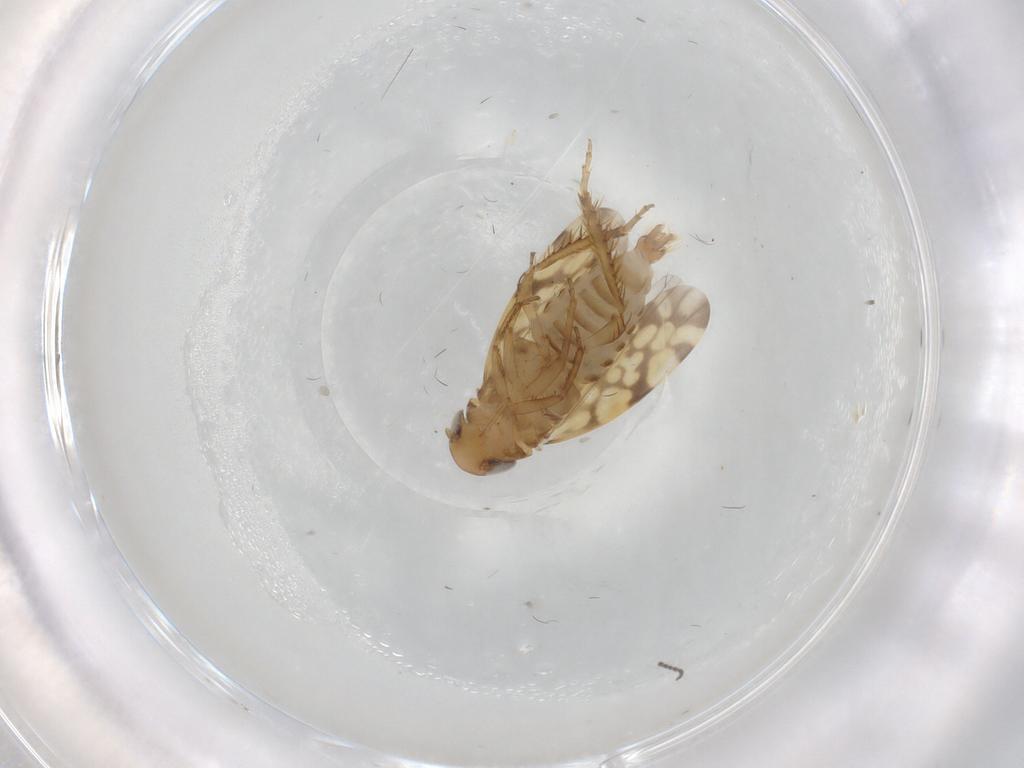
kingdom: Animalia
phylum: Arthropoda
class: Insecta
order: Hemiptera
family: Cicadellidae
